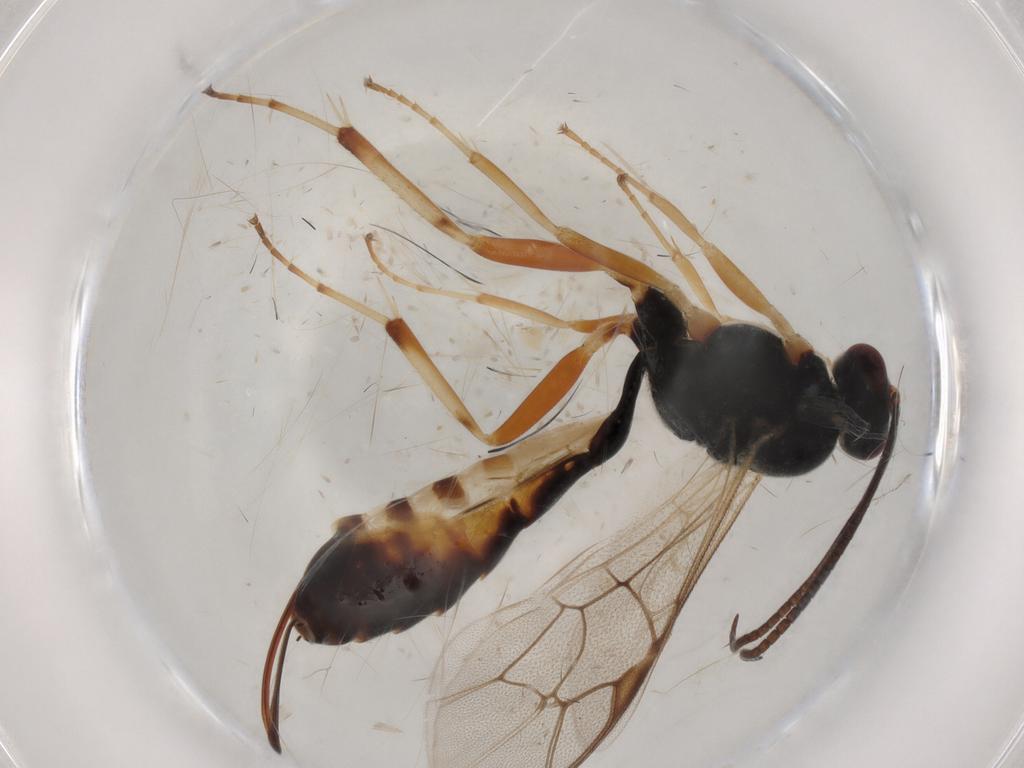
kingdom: Animalia
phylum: Arthropoda
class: Insecta
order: Hymenoptera
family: Ichneumonidae
